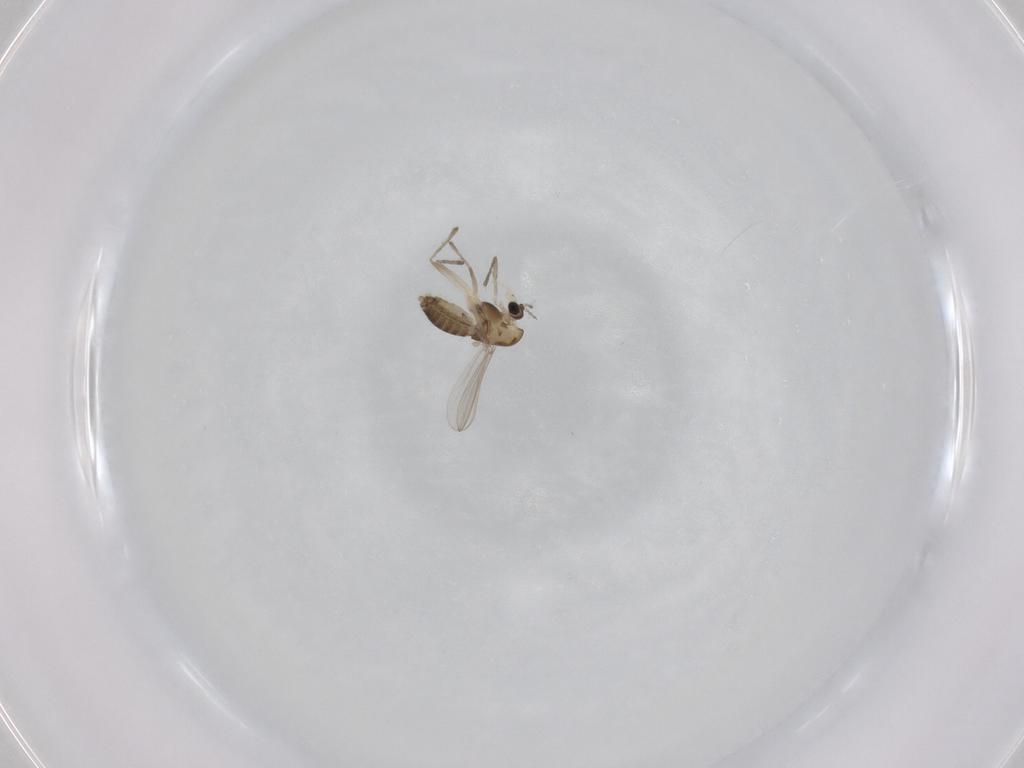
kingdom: Animalia
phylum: Arthropoda
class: Insecta
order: Diptera
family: Chironomidae
